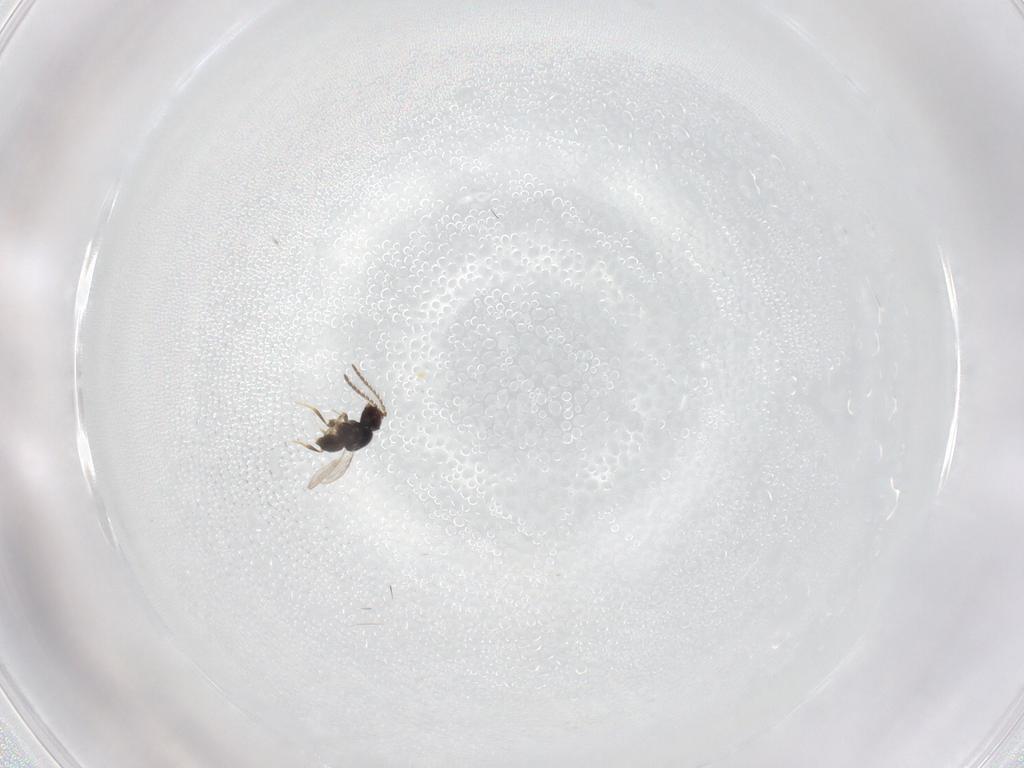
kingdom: Animalia
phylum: Arthropoda
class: Insecta
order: Hymenoptera
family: Ceraphronidae
